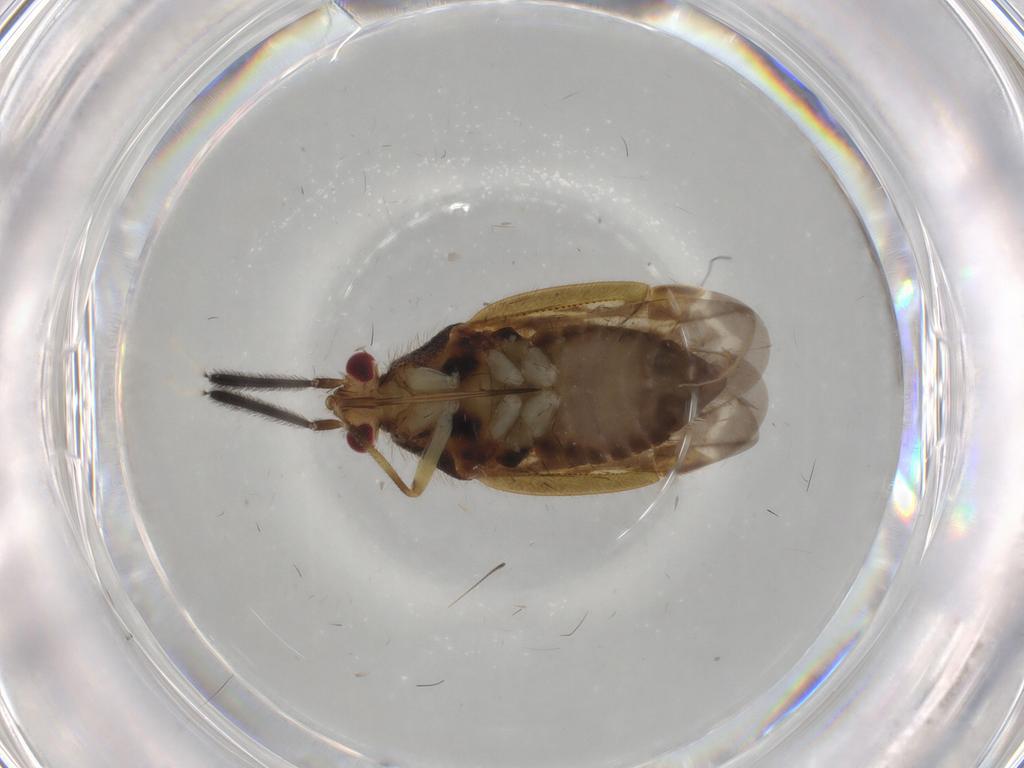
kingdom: Animalia
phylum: Arthropoda
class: Insecta
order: Hemiptera
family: Miridae
